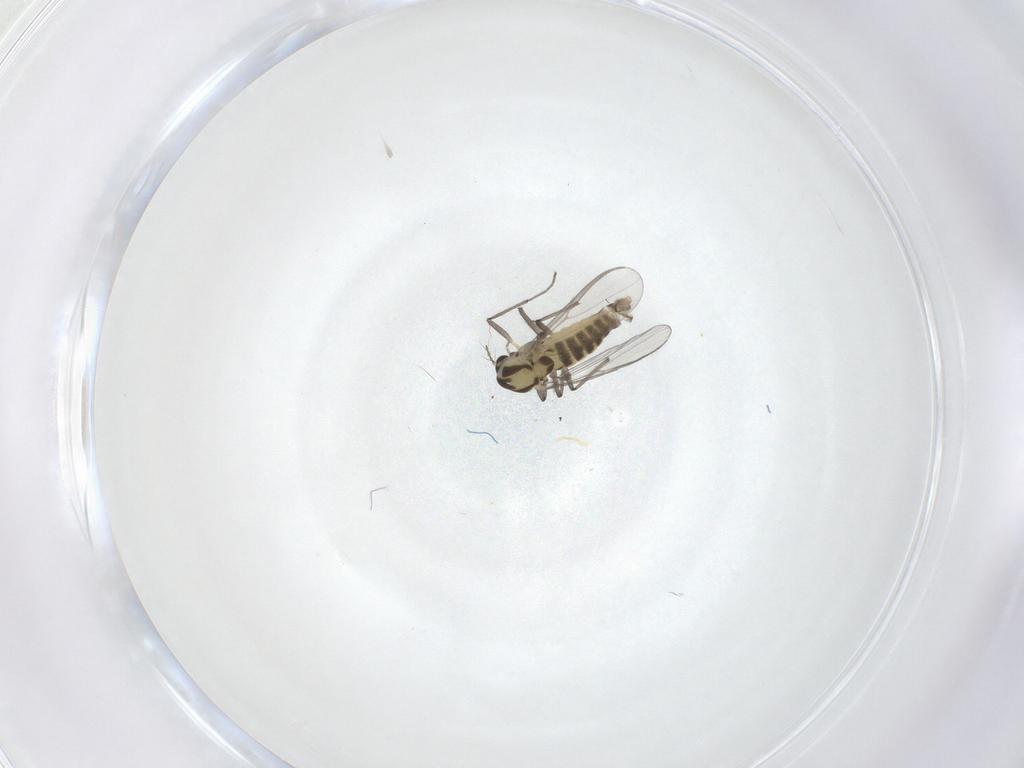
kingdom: Animalia
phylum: Arthropoda
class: Insecta
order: Diptera
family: Chironomidae
